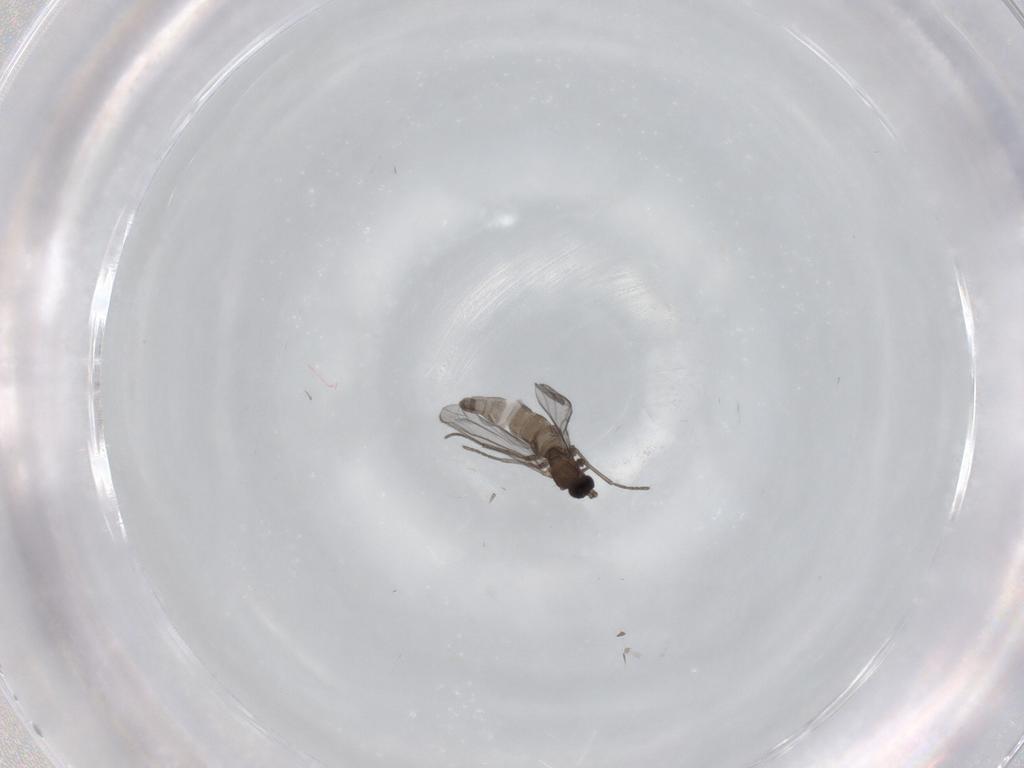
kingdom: Animalia
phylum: Arthropoda
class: Insecta
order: Diptera
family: Sciaridae
